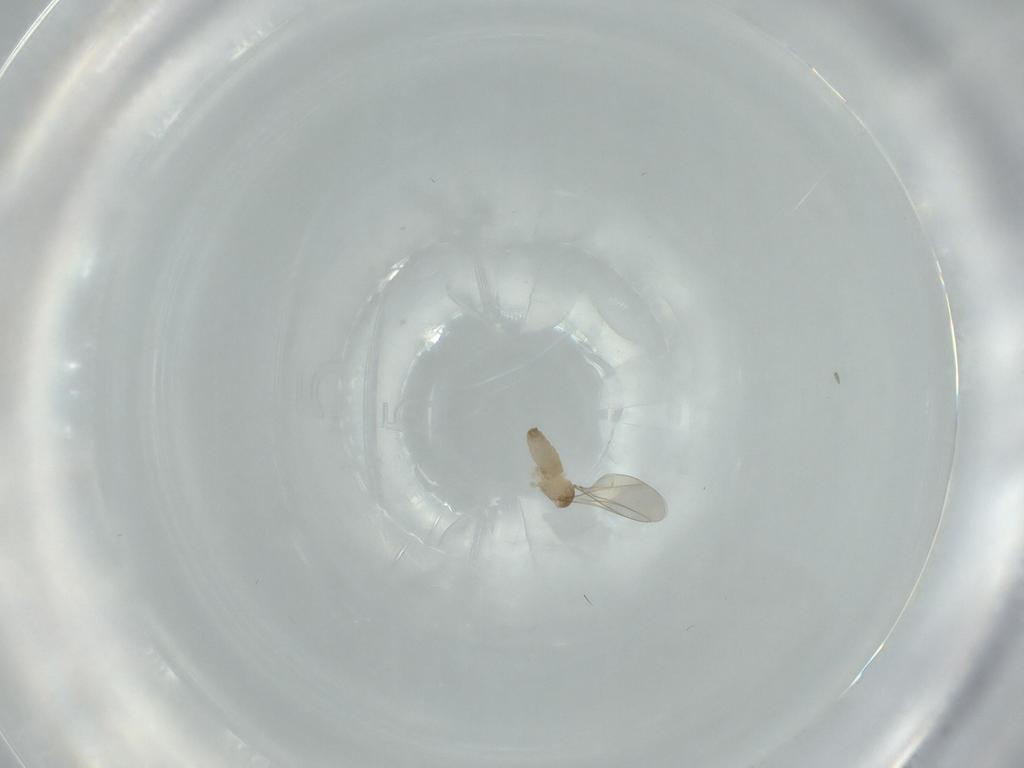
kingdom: Animalia
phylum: Arthropoda
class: Insecta
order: Diptera
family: Cecidomyiidae
